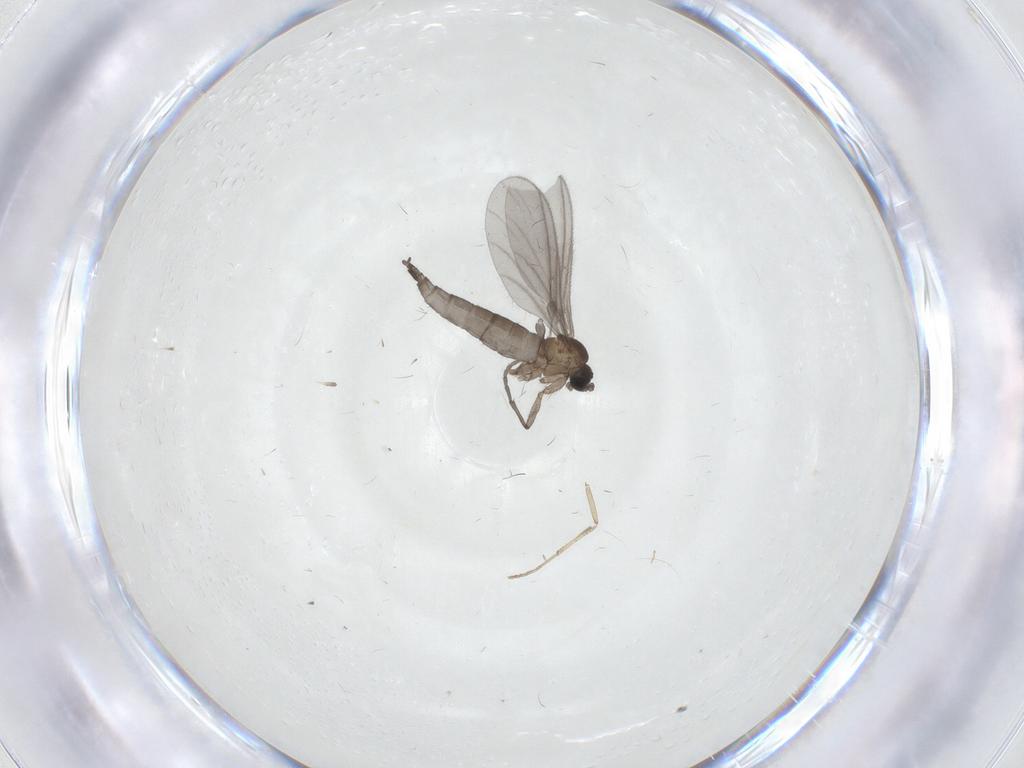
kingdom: Animalia
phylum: Arthropoda
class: Insecta
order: Diptera
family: Sciaridae
